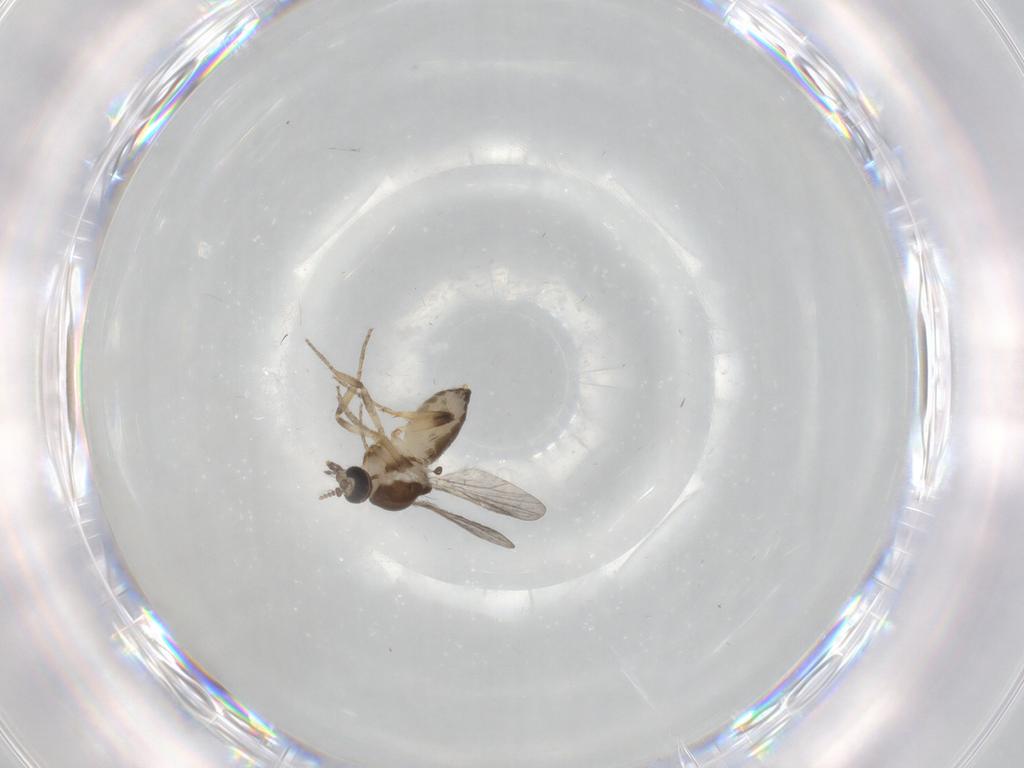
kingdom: Animalia
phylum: Arthropoda
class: Insecta
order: Diptera
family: Ceratopogonidae
